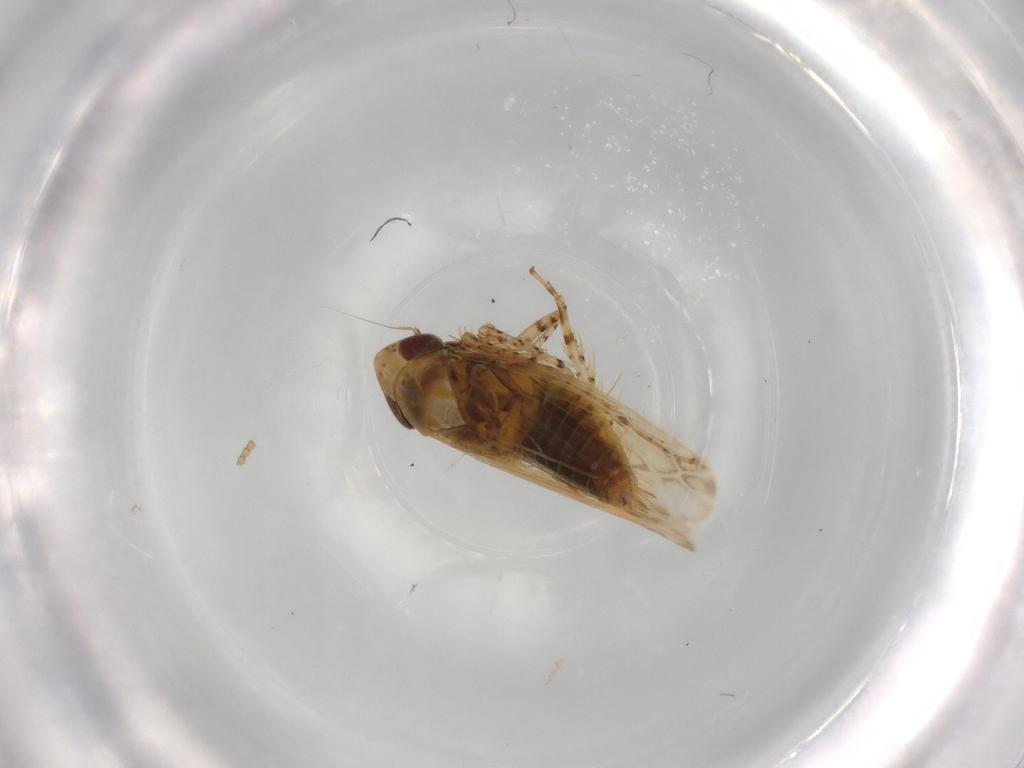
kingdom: Animalia
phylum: Arthropoda
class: Insecta
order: Hemiptera
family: Cicadellidae
